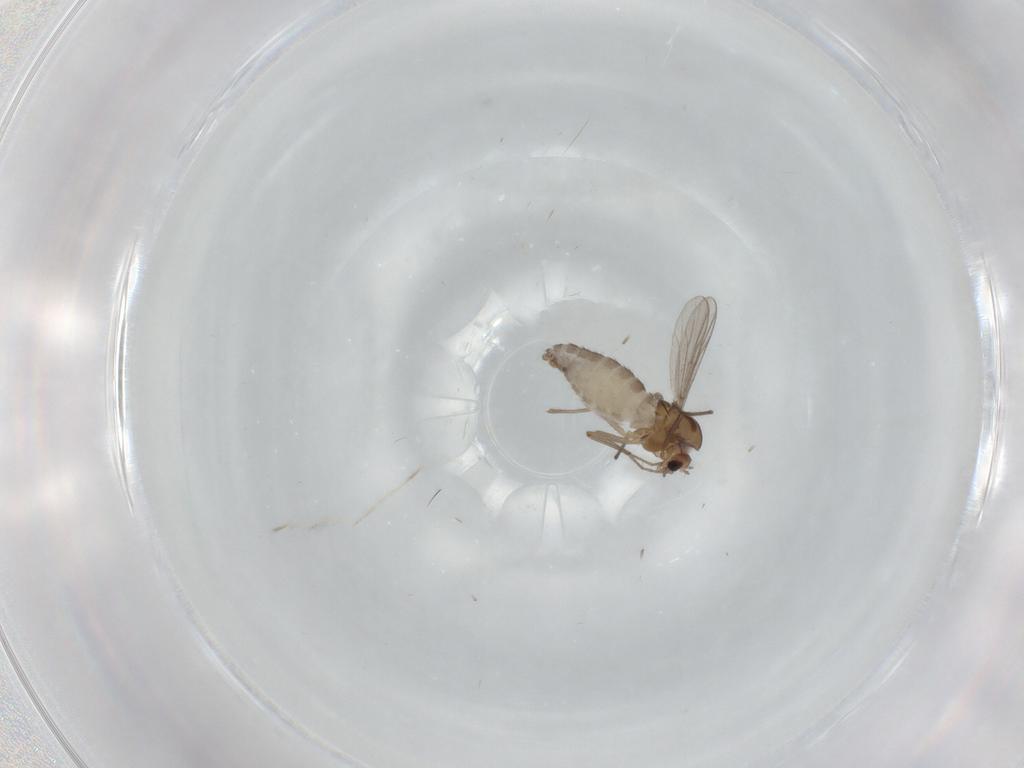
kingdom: Animalia
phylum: Arthropoda
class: Insecta
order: Diptera
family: Chironomidae
